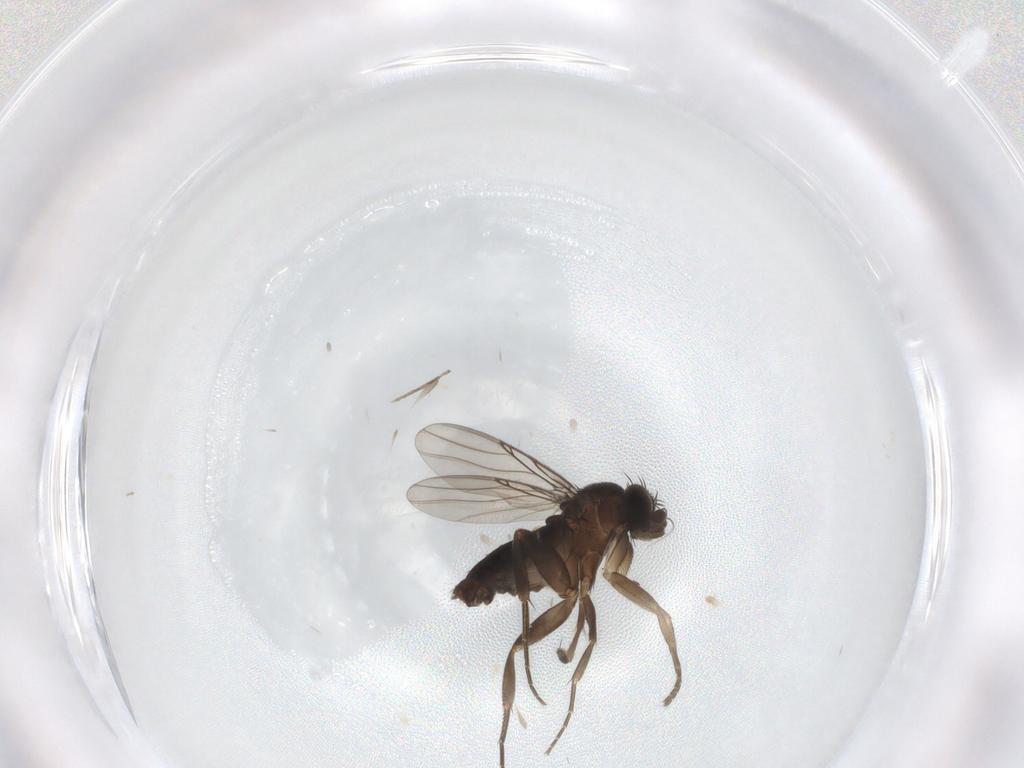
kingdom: Animalia
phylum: Arthropoda
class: Insecta
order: Diptera
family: Phoridae
